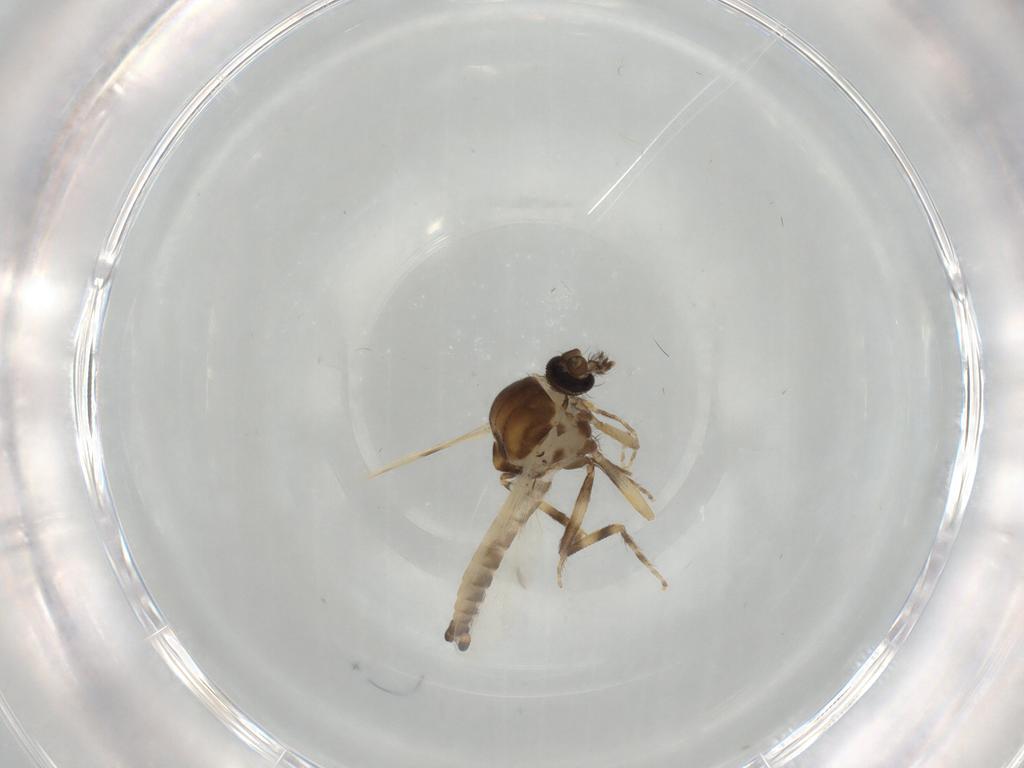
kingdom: Animalia
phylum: Arthropoda
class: Insecta
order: Diptera
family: Ceratopogonidae
